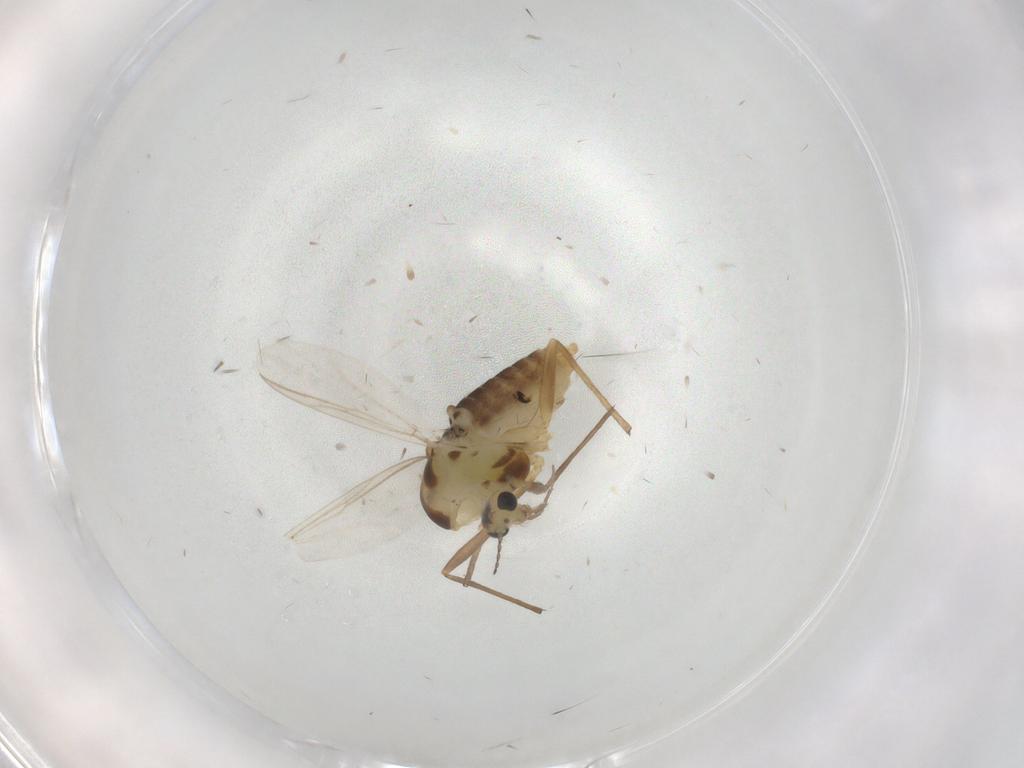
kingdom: Animalia
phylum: Arthropoda
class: Insecta
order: Diptera
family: Chironomidae
